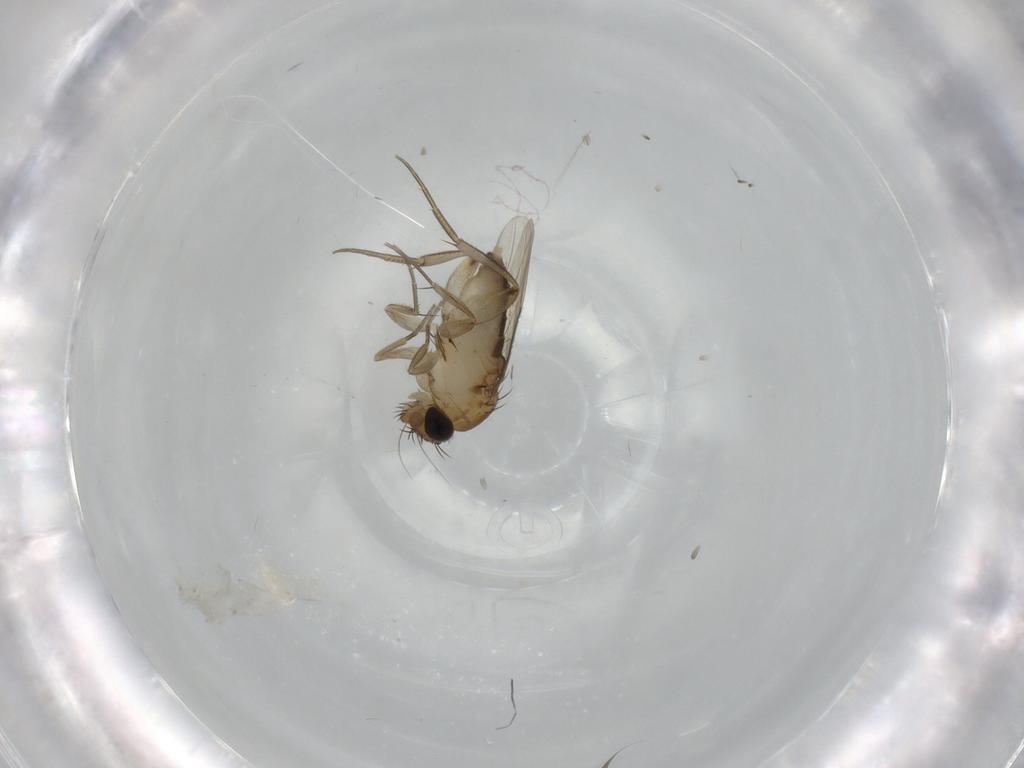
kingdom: Animalia
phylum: Arthropoda
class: Insecta
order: Diptera
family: Phoridae
